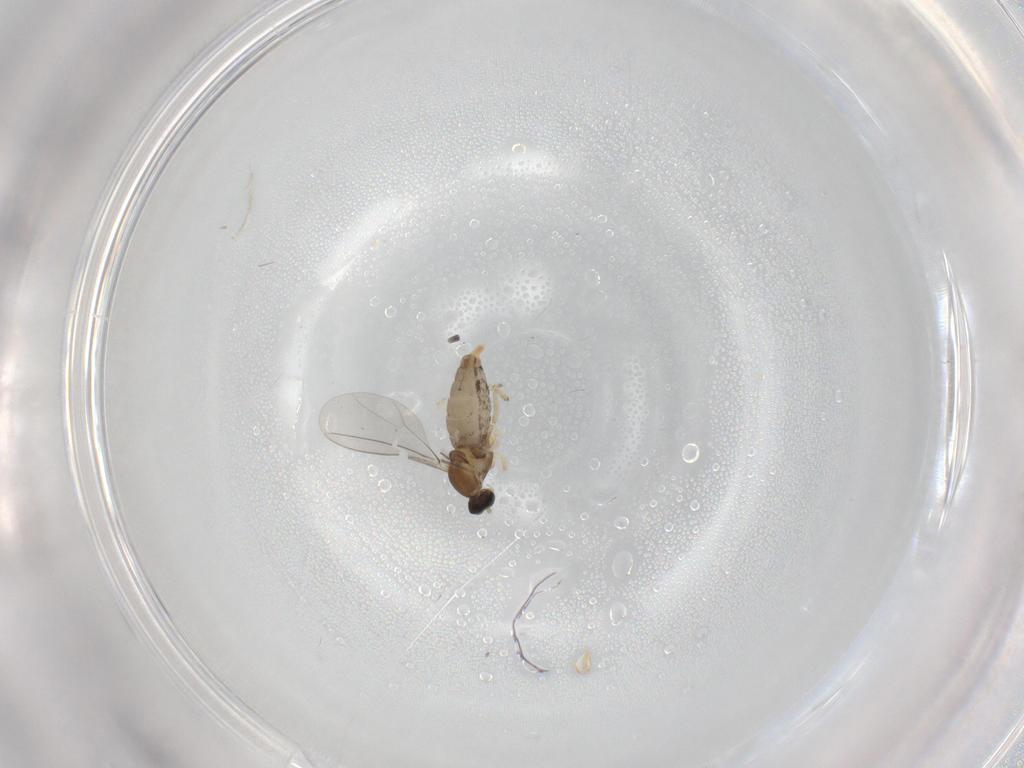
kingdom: Animalia
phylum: Arthropoda
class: Insecta
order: Diptera
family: Cecidomyiidae
